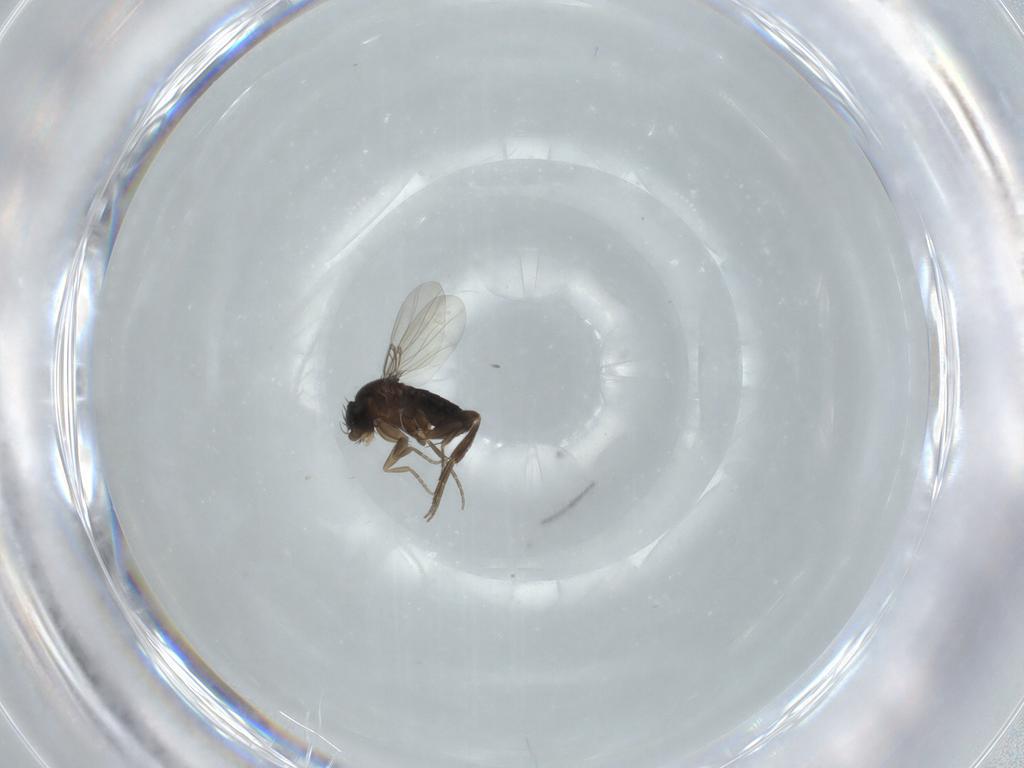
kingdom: Animalia
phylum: Arthropoda
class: Insecta
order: Diptera
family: Phoridae
